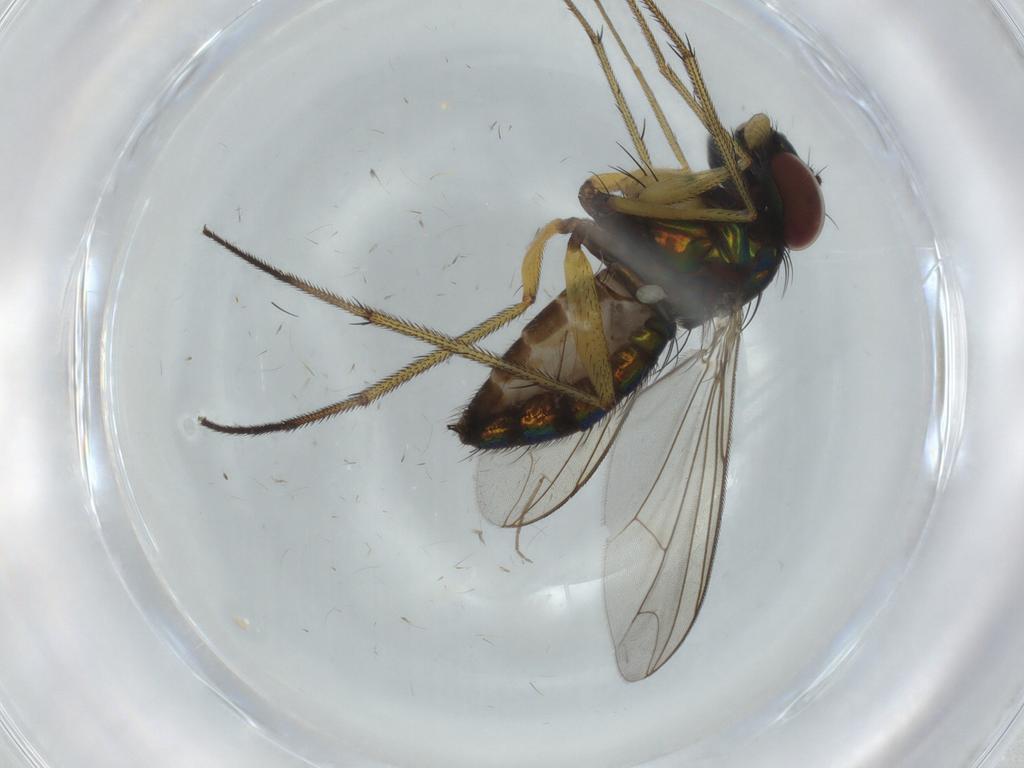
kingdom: Animalia
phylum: Arthropoda
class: Insecta
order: Diptera
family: Dolichopodidae
